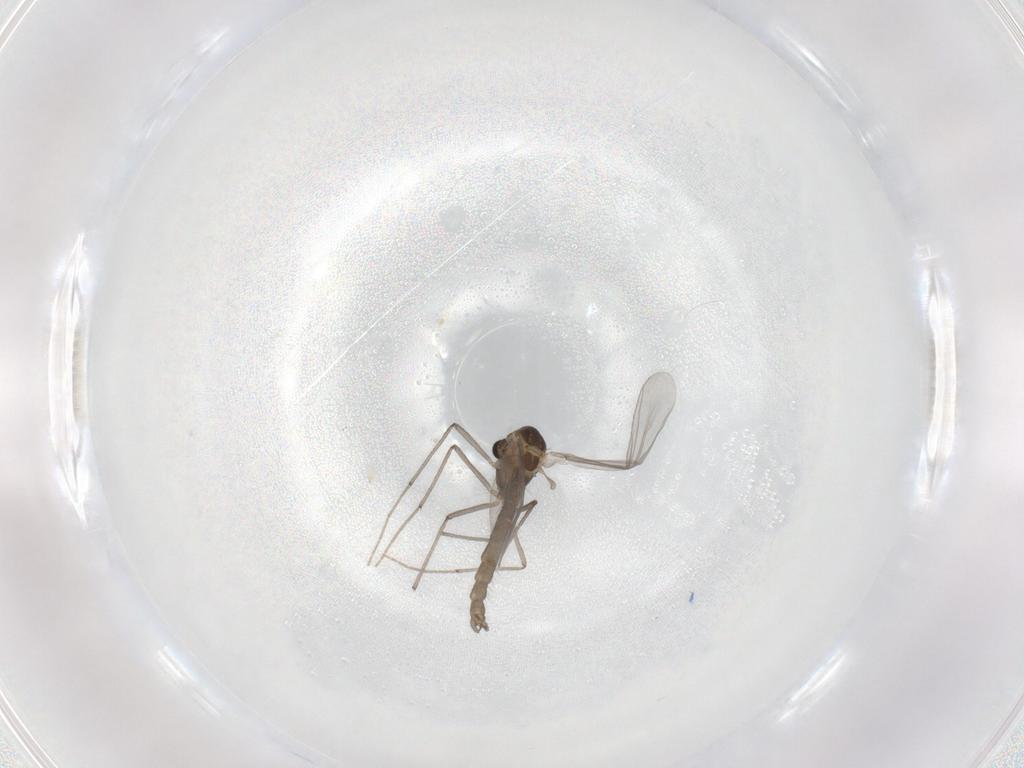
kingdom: Animalia
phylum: Arthropoda
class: Insecta
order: Diptera
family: Chironomidae
